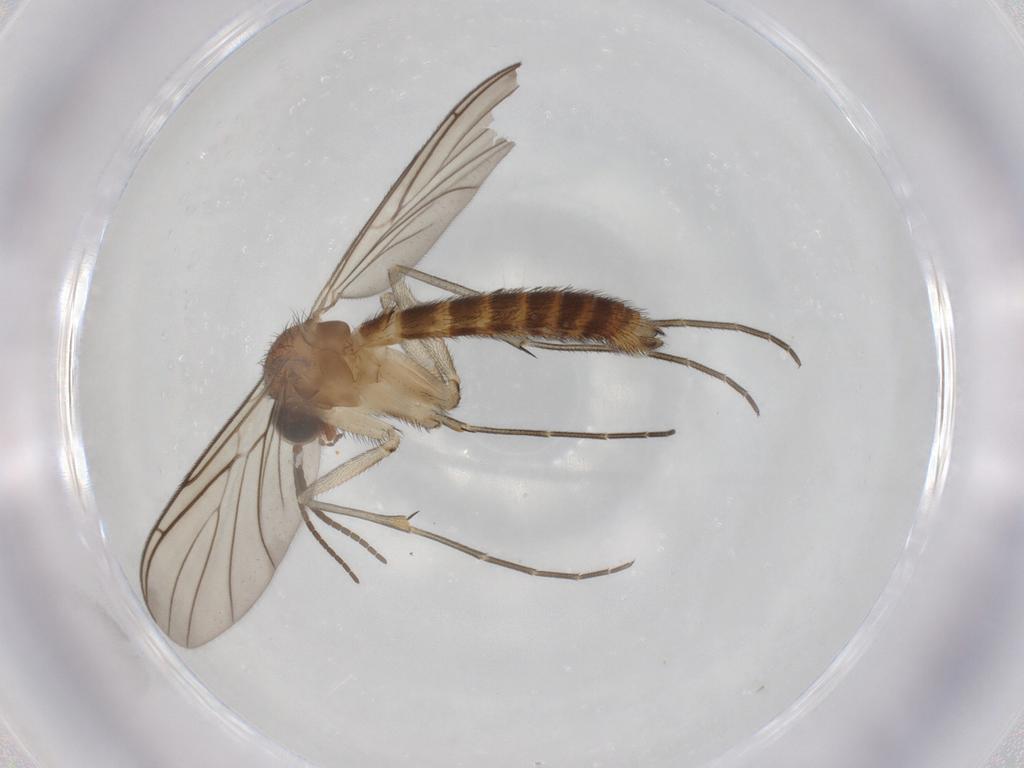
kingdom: Animalia
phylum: Arthropoda
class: Insecta
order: Diptera
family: Keroplatidae
